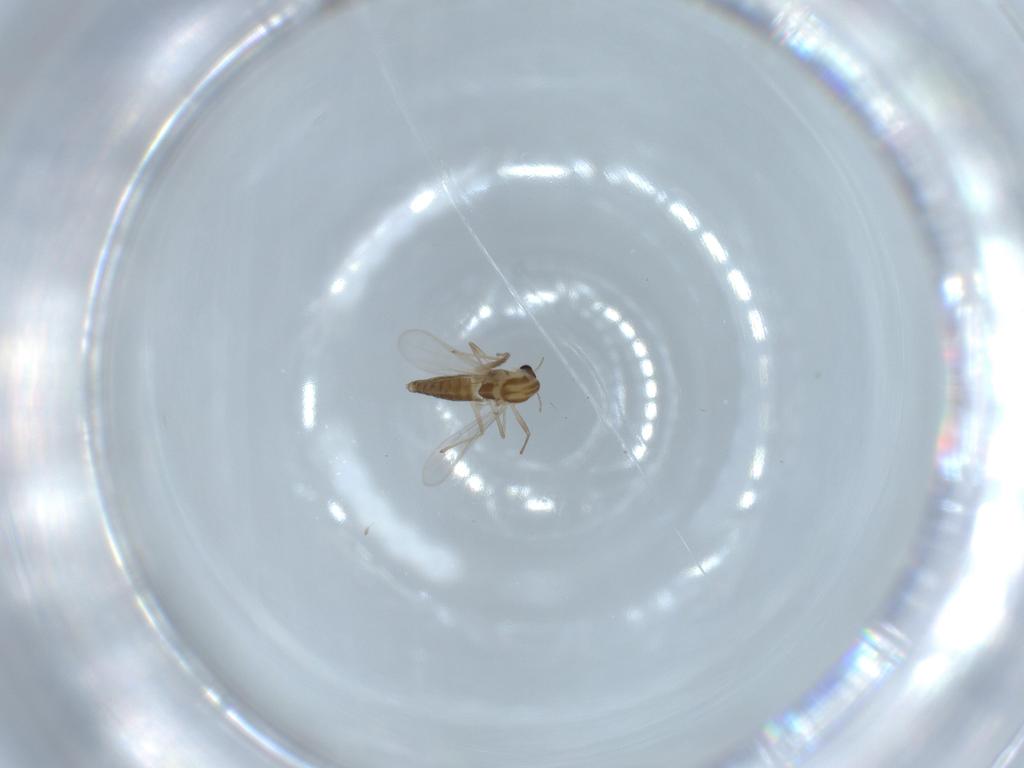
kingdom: Animalia
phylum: Arthropoda
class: Insecta
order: Diptera
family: Chironomidae
